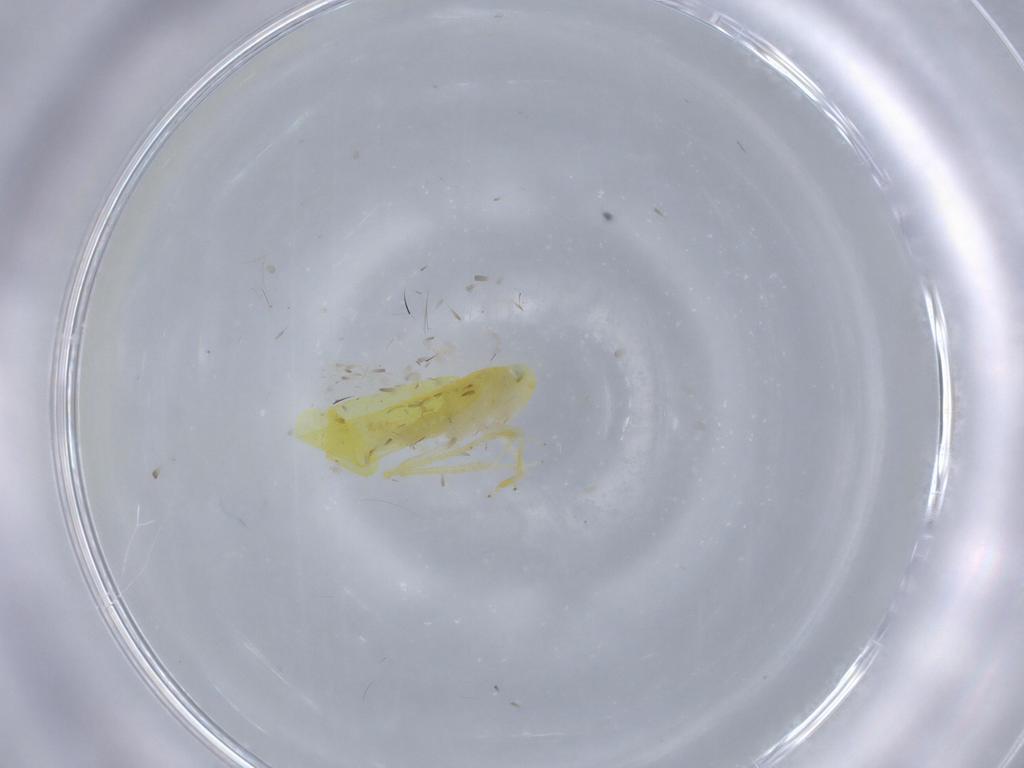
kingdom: Animalia
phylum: Arthropoda
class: Insecta
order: Hemiptera
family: Cicadellidae
